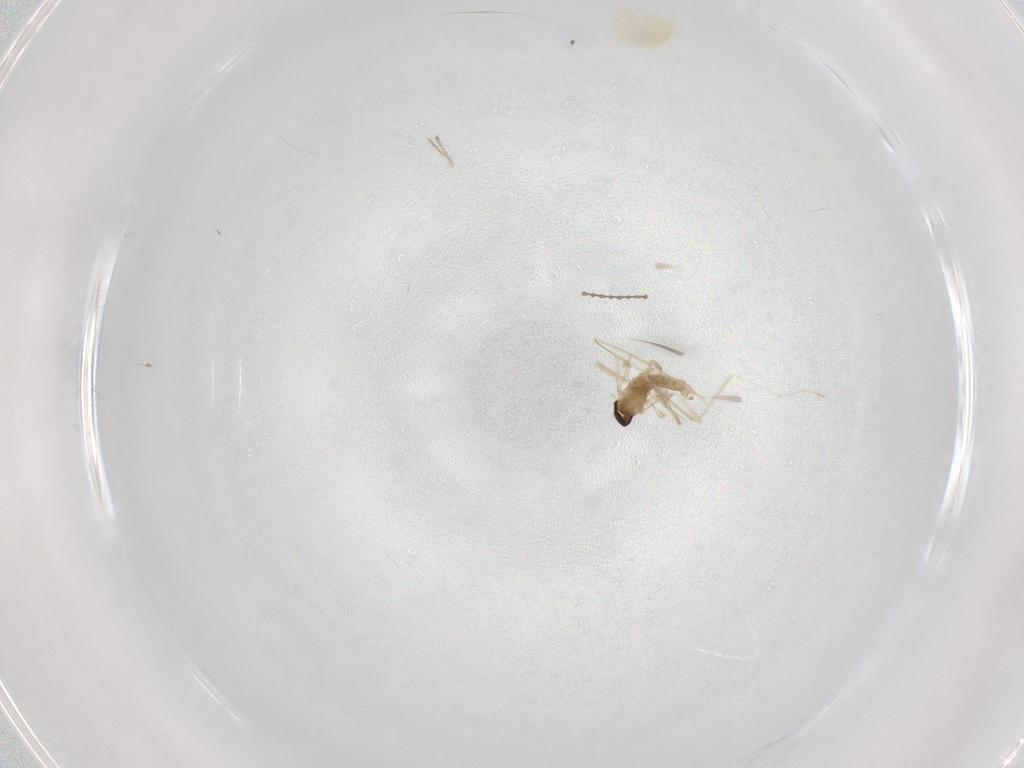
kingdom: Animalia
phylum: Arthropoda
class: Insecta
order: Diptera
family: Cecidomyiidae
